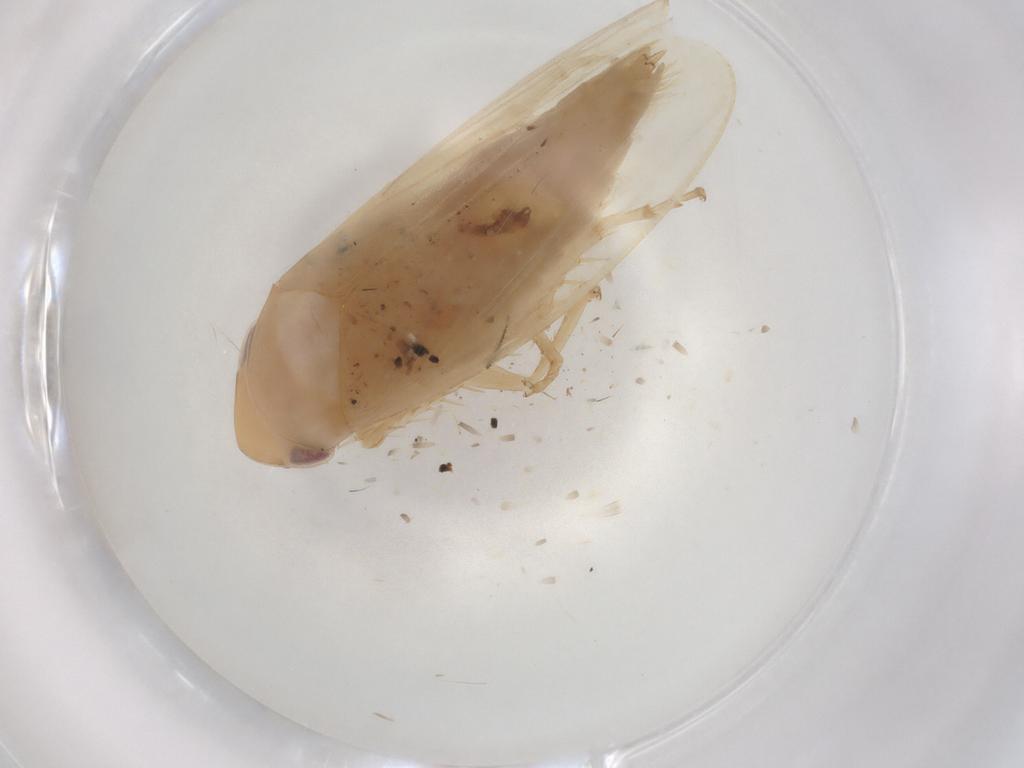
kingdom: Animalia
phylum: Arthropoda
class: Insecta
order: Hemiptera
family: Cicadellidae
